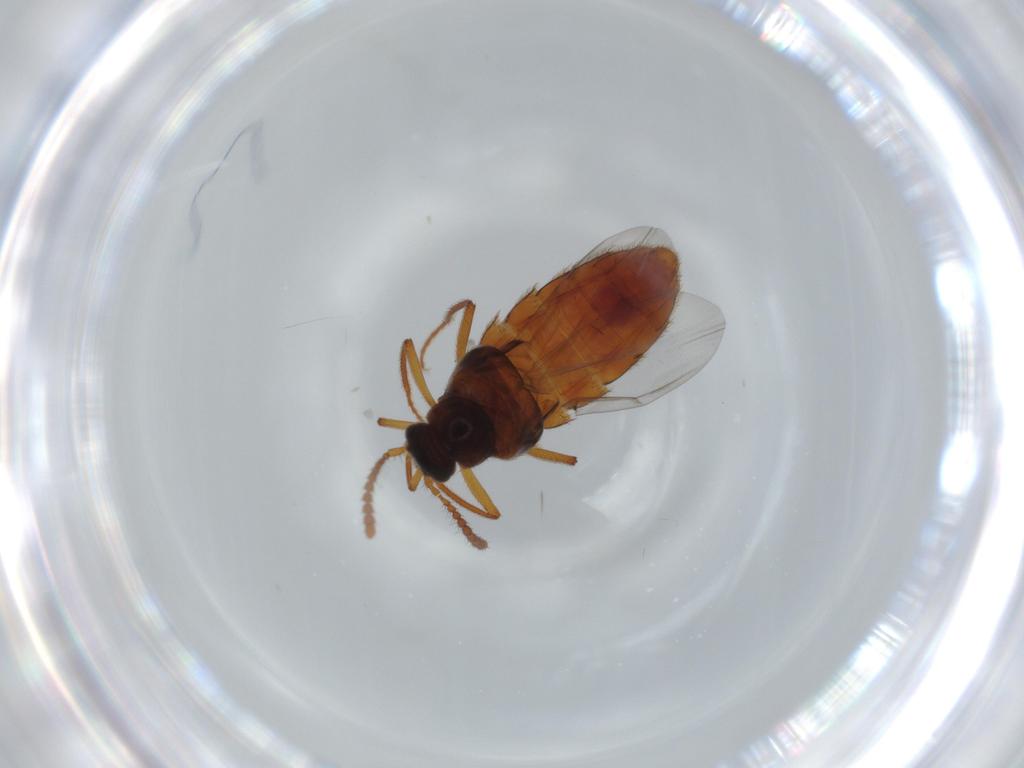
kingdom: Animalia
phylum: Arthropoda
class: Insecta
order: Coleoptera
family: Staphylinidae
